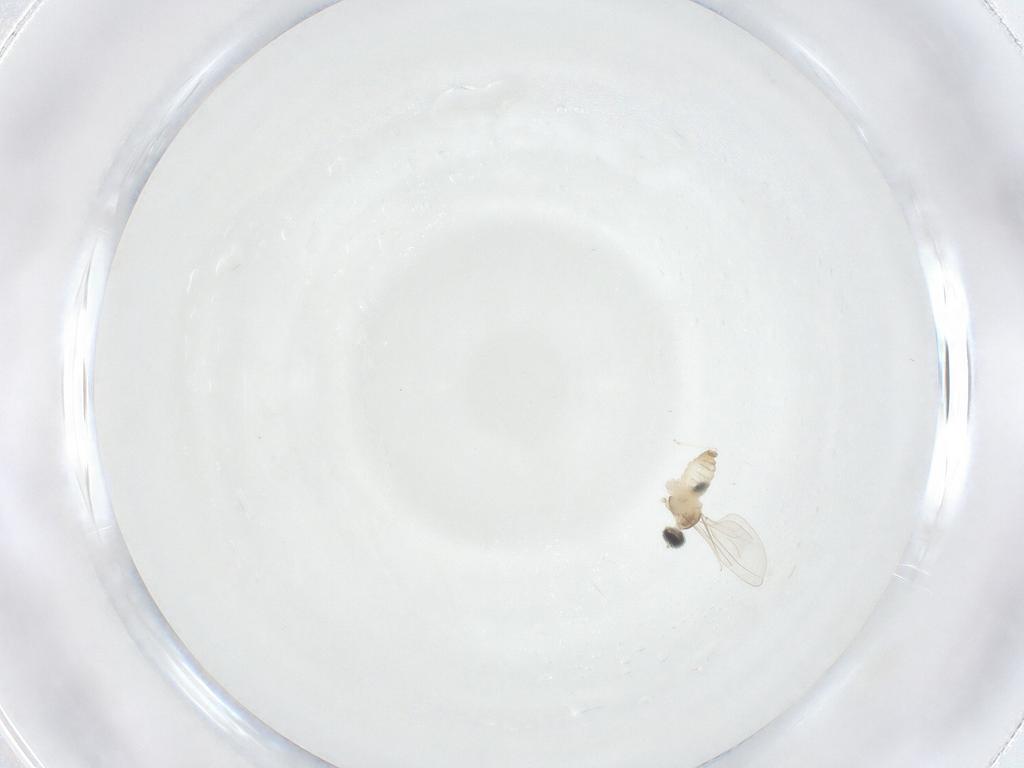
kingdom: Animalia
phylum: Arthropoda
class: Insecta
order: Diptera
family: Cecidomyiidae
